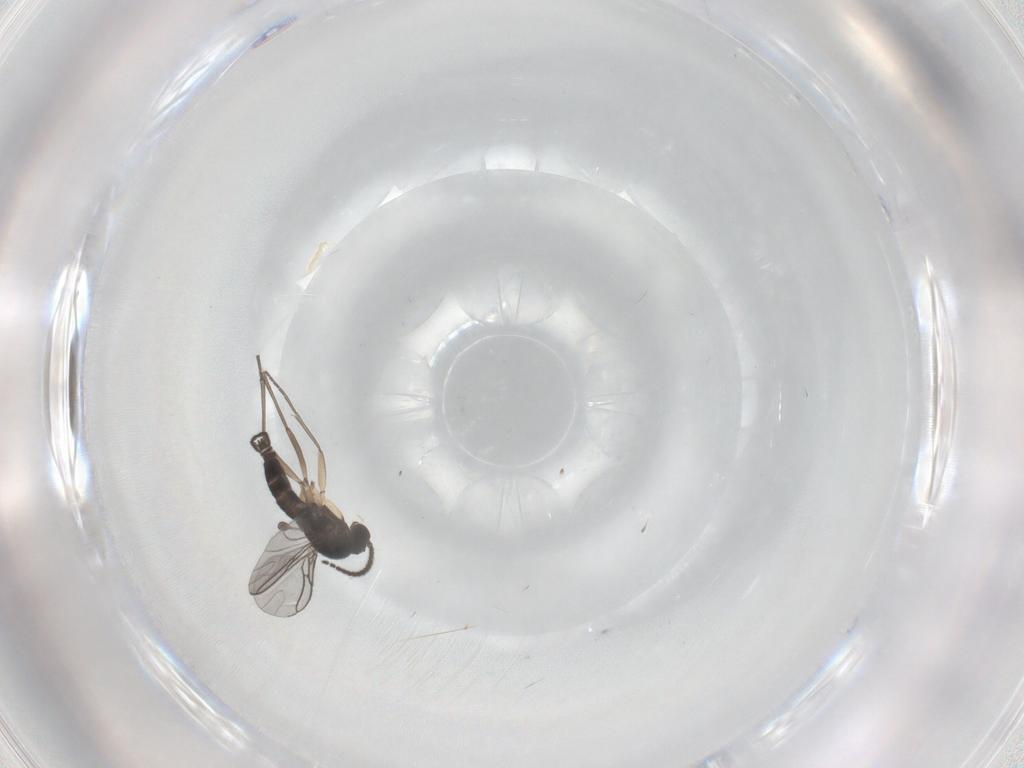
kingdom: Animalia
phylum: Arthropoda
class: Insecta
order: Diptera
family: Sciaridae
